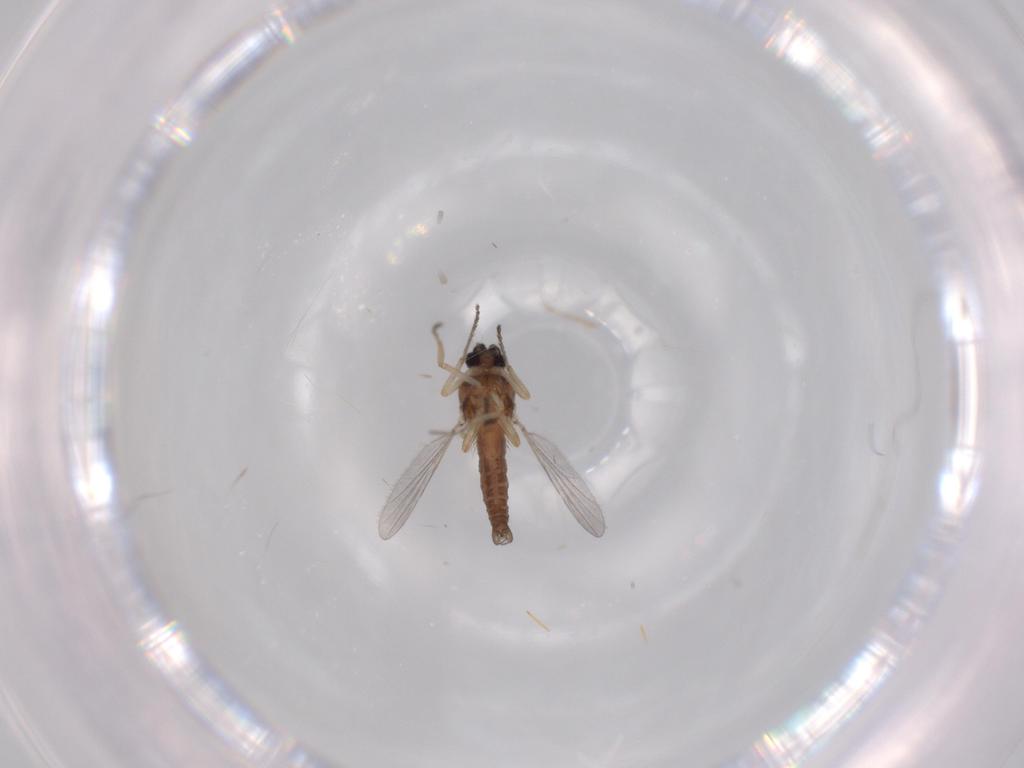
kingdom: Animalia
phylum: Arthropoda
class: Insecta
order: Diptera
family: Ceratopogonidae
